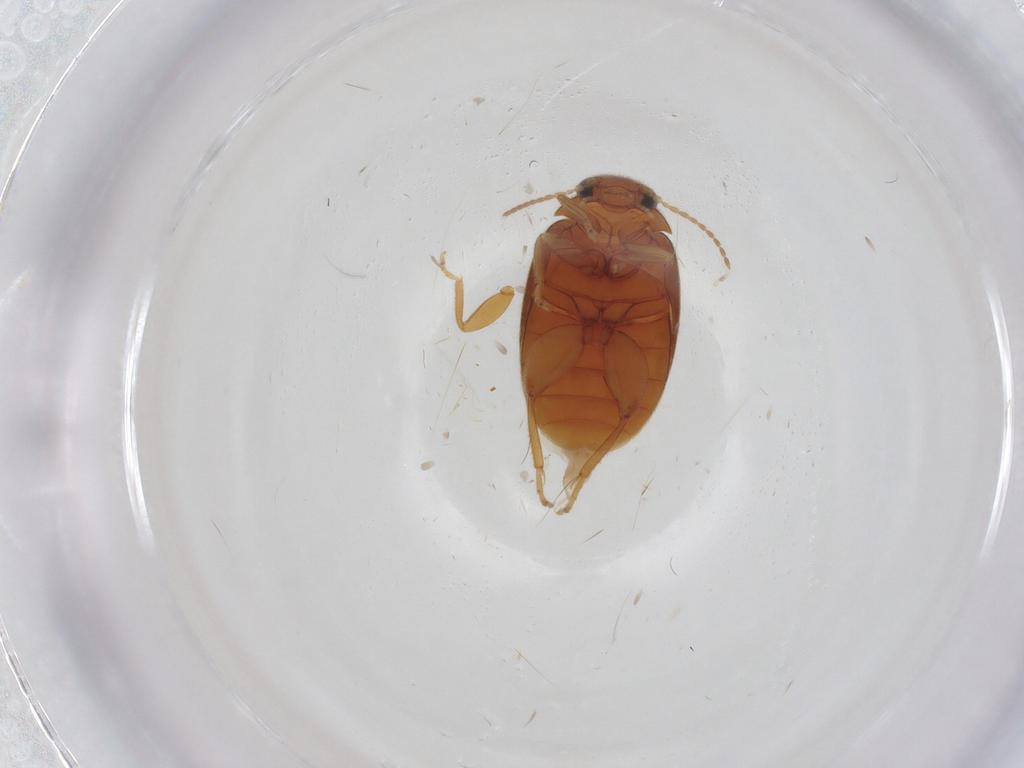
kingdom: Animalia
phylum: Arthropoda
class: Insecta
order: Coleoptera
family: Scirtidae
